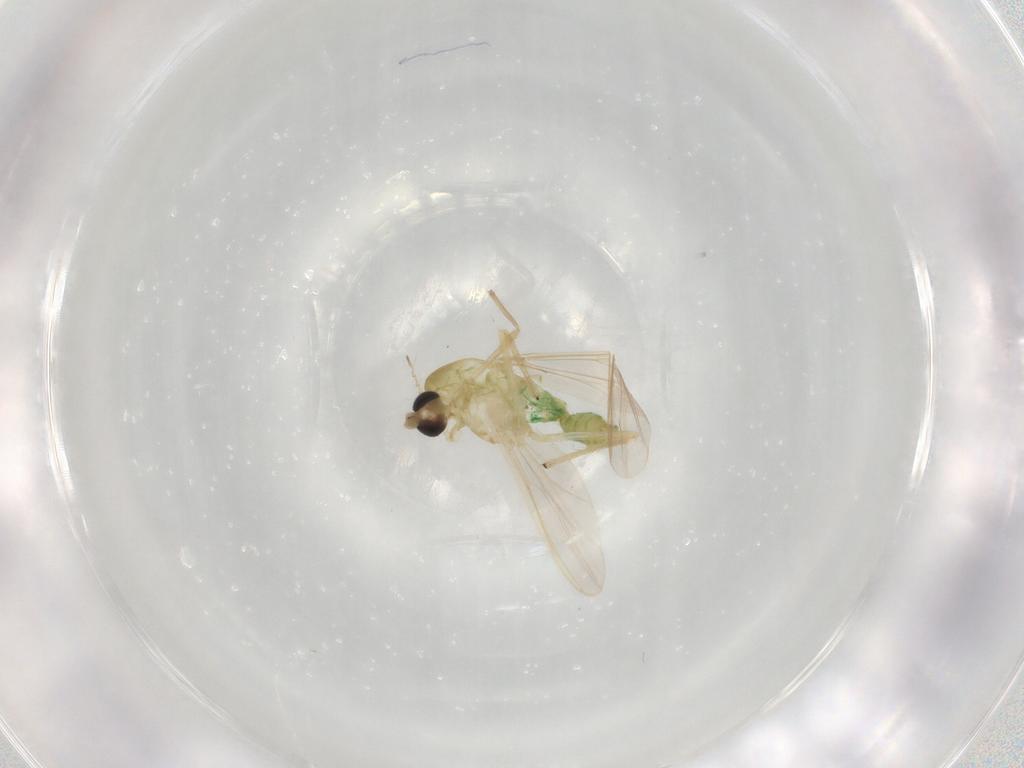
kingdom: Animalia
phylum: Arthropoda
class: Insecta
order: Diptera
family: Chironomidae
